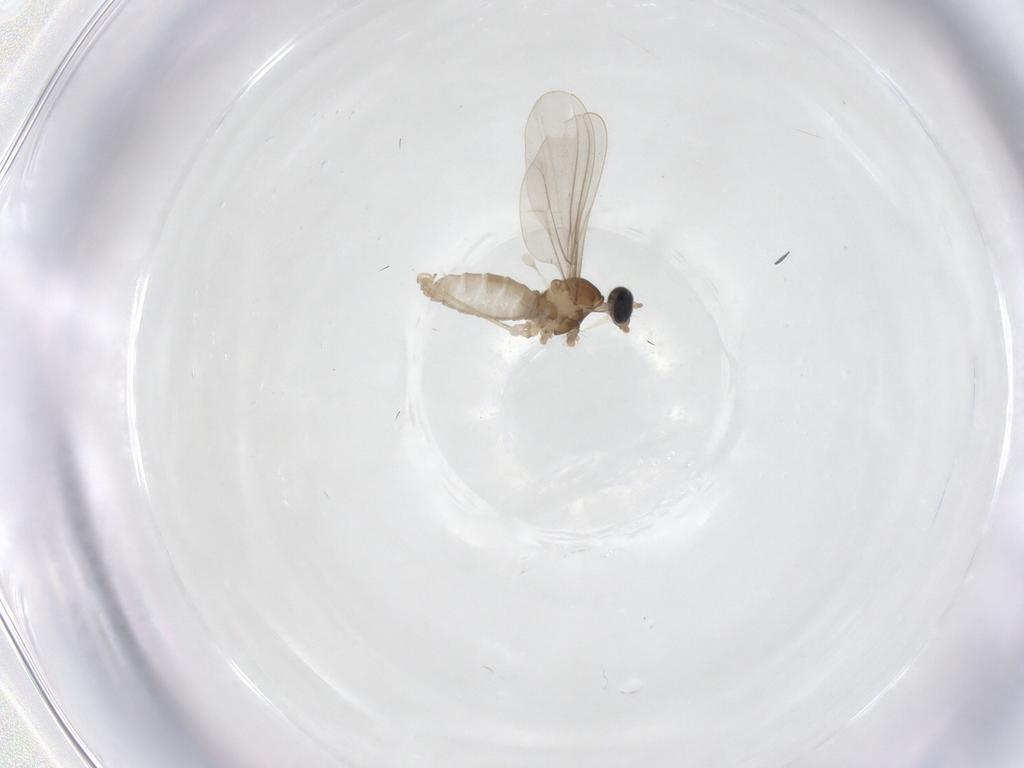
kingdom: Animalia
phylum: Arthropoda
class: Insecta
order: Diptera
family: Cecidomyiidae
